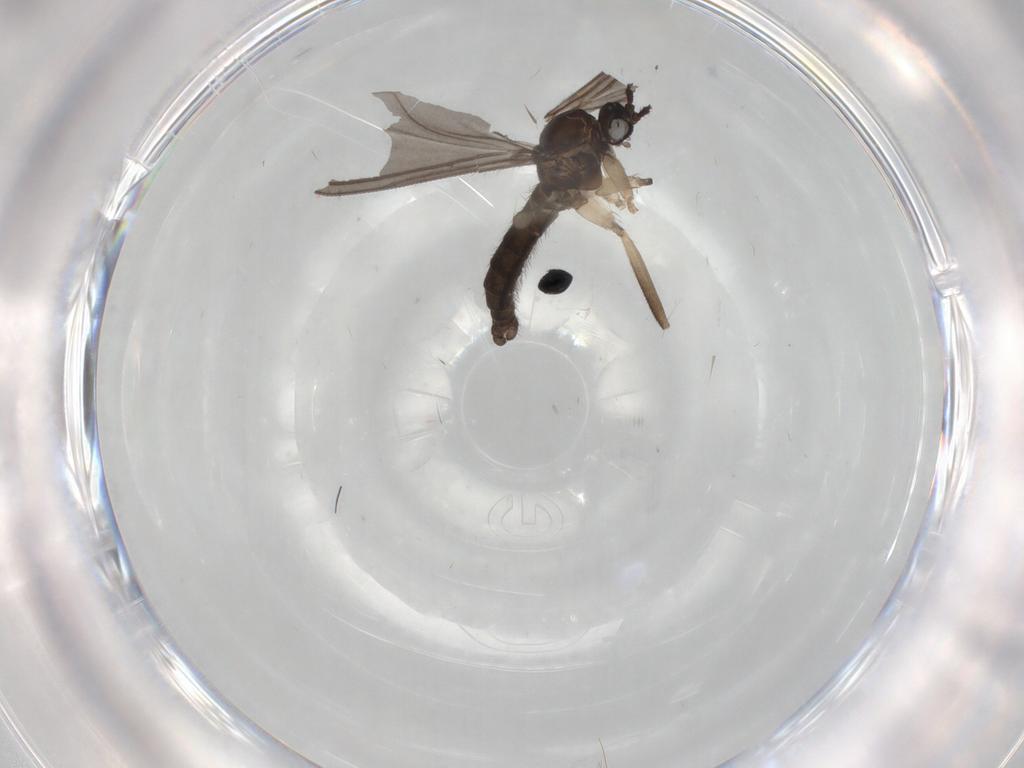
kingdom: Animalia
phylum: Arthropoda
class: Insecta
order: Diptera
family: Sciaridae
